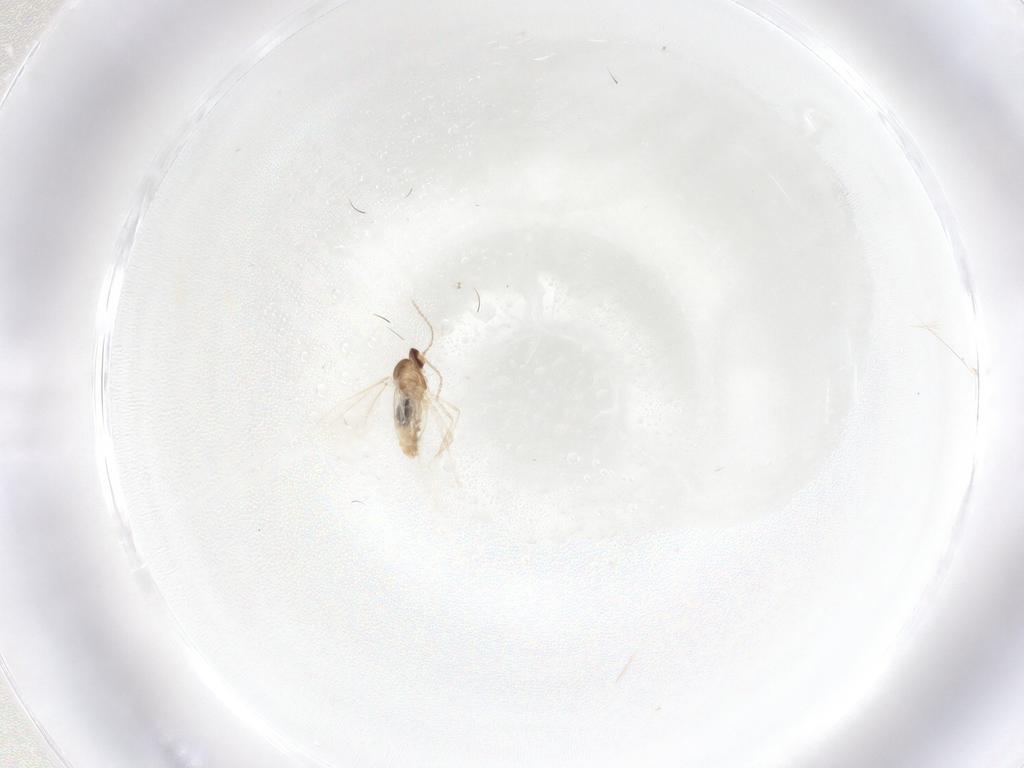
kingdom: Animalia
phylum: Arthropoda
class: Insecta
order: Diptera
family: Cecidomyiidae
